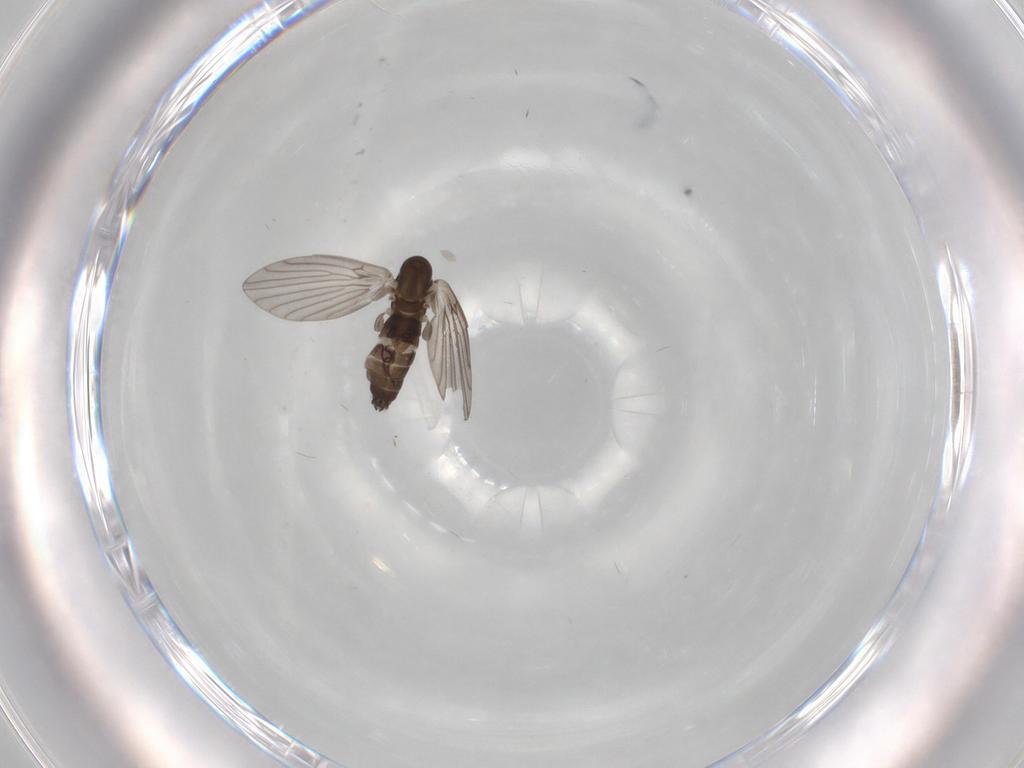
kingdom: Animalia
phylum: Arthropoda
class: Insecta
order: Diptera
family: Muscidae
